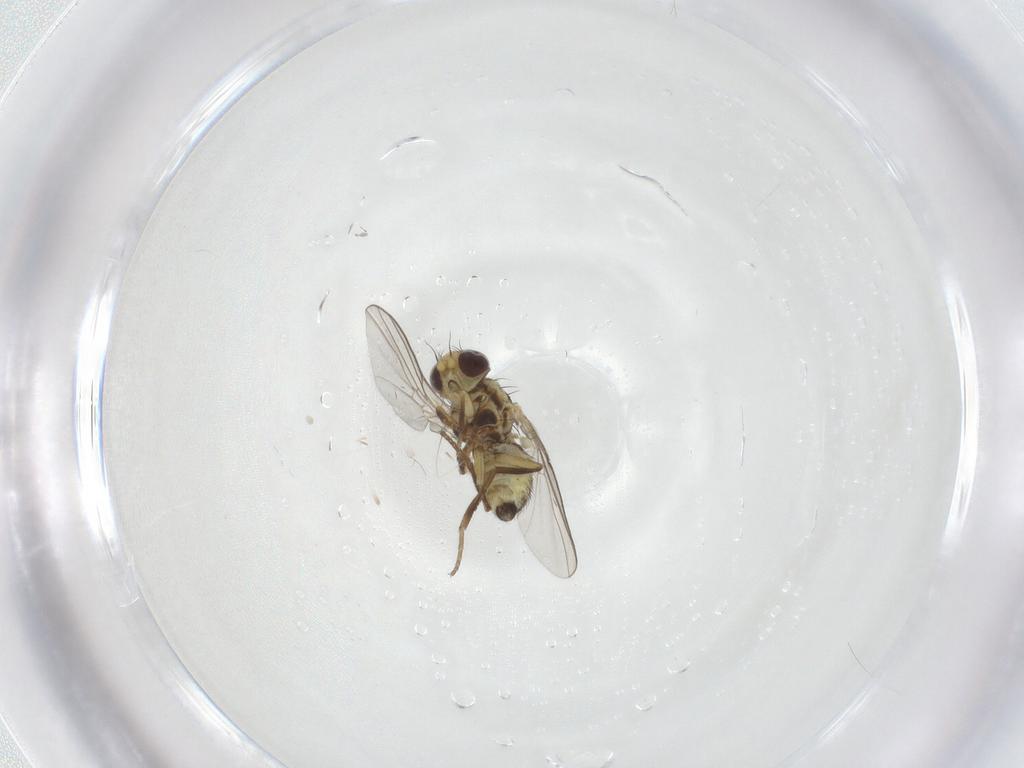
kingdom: Animalia
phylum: Arthropoda
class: Insecta
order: Diptera
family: Agromyzidae
